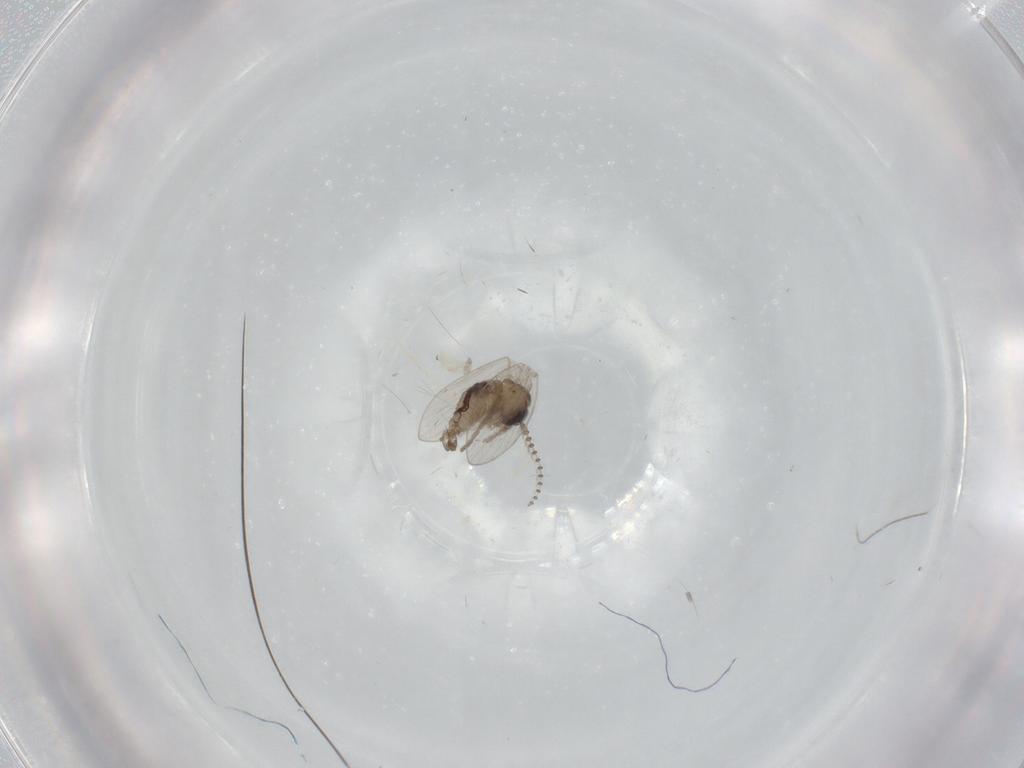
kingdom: Animalia
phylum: Arthropoda
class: Insecta
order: Diptera
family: Psychodidae
